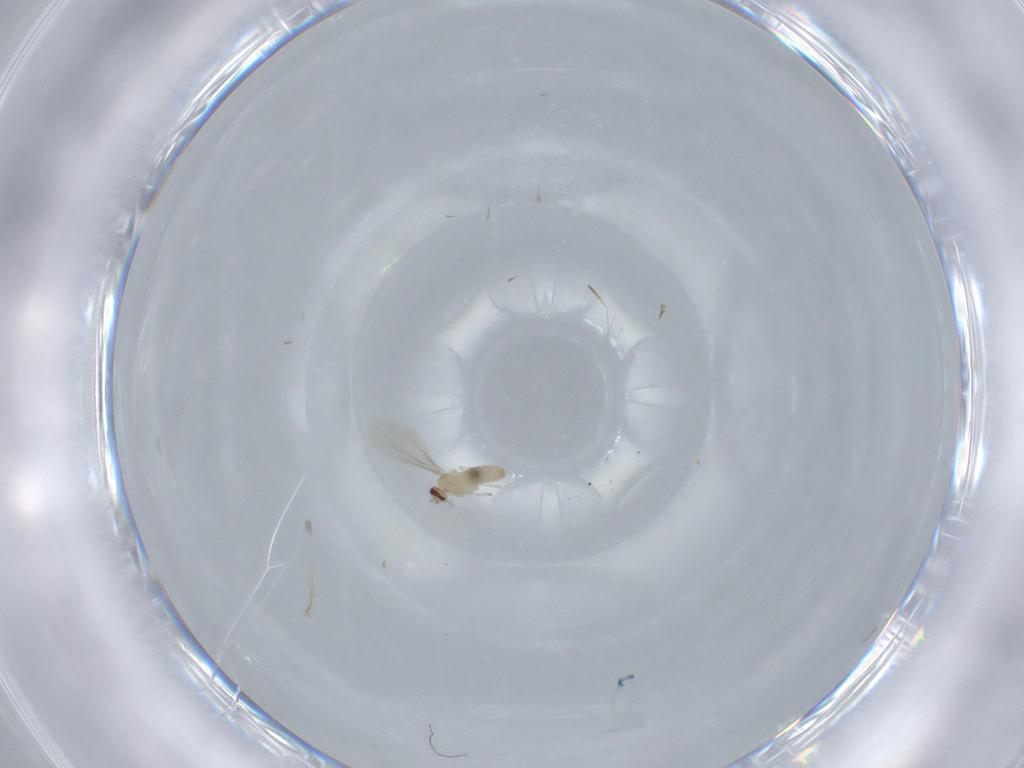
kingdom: Animalia
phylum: Arthropoda
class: Insecta
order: Diptera
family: Cecidomyiidae
